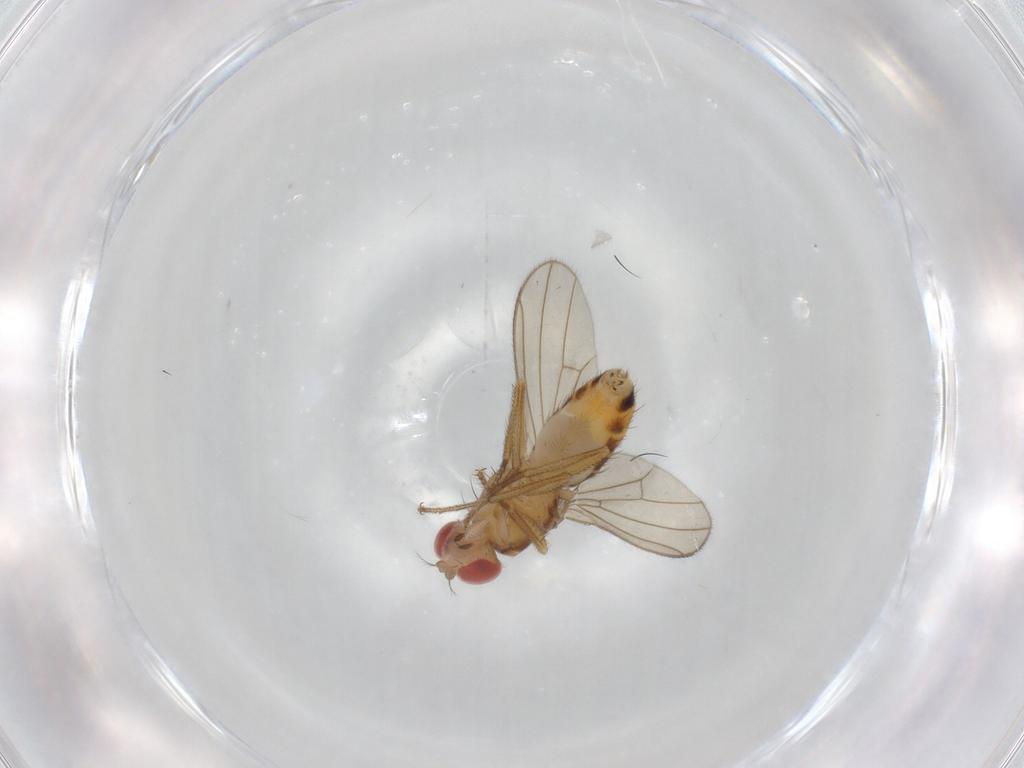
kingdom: Animalia
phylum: Arthropoda
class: Insecta
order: Diptera
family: Drosophilidae
